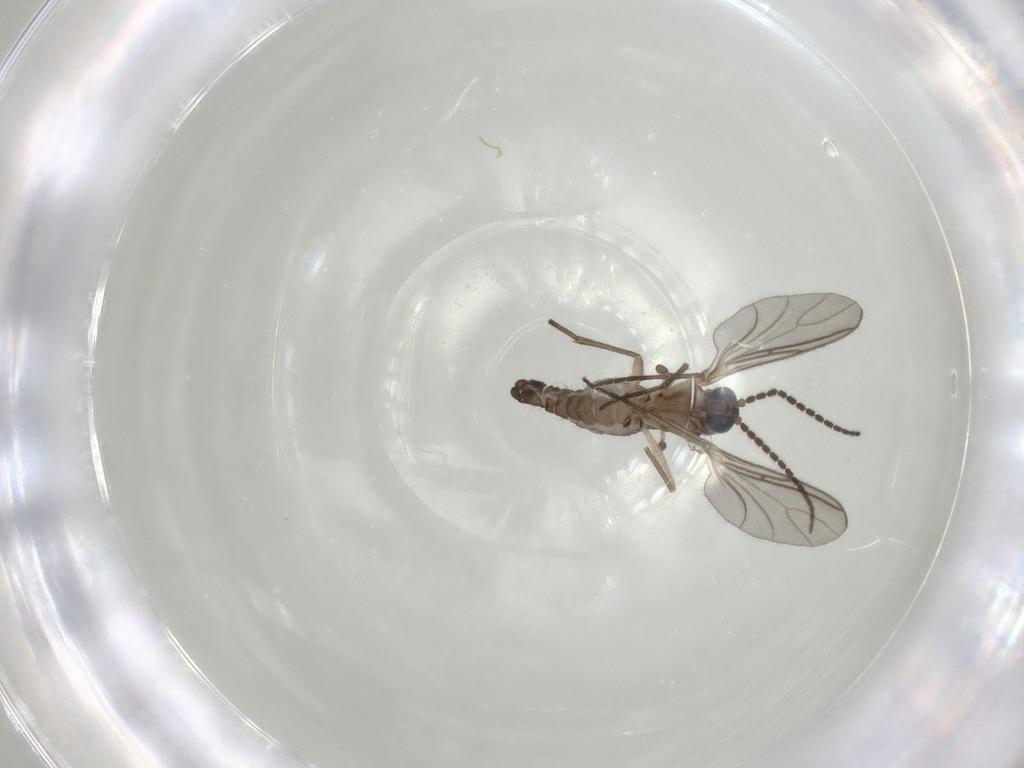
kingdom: Animalia
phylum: Arthropoda
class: Insecta
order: Diptera
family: Sciaridae
